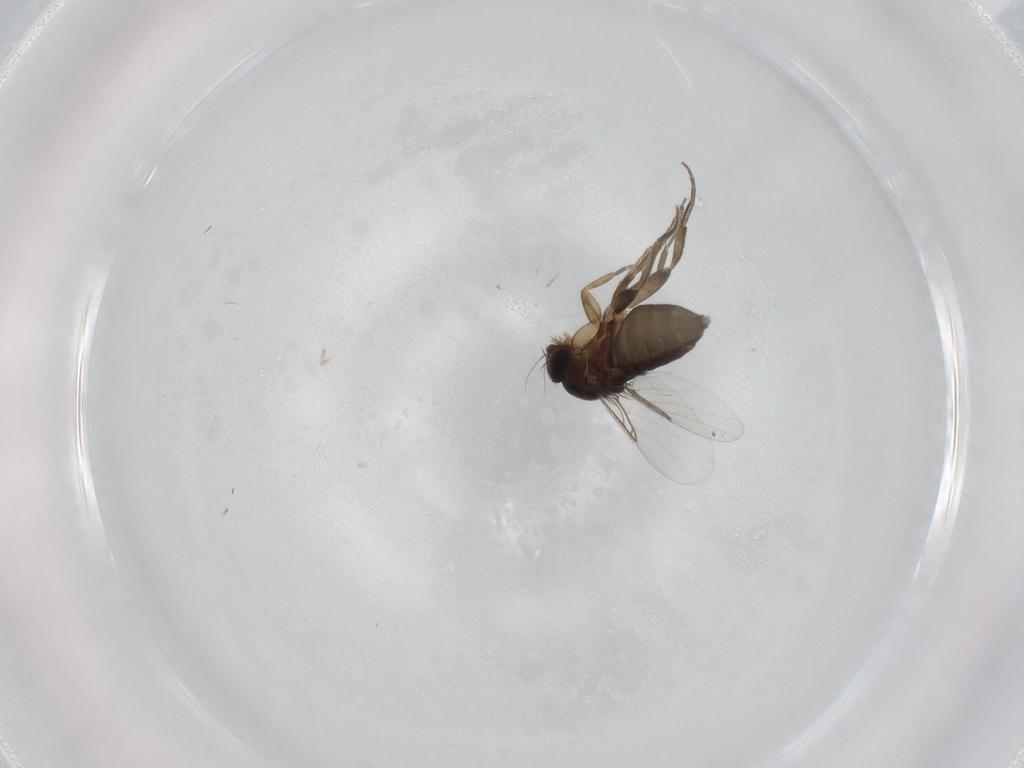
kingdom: Animalia
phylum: Arthropoda
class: Insecta
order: Diptera
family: Phoridae
